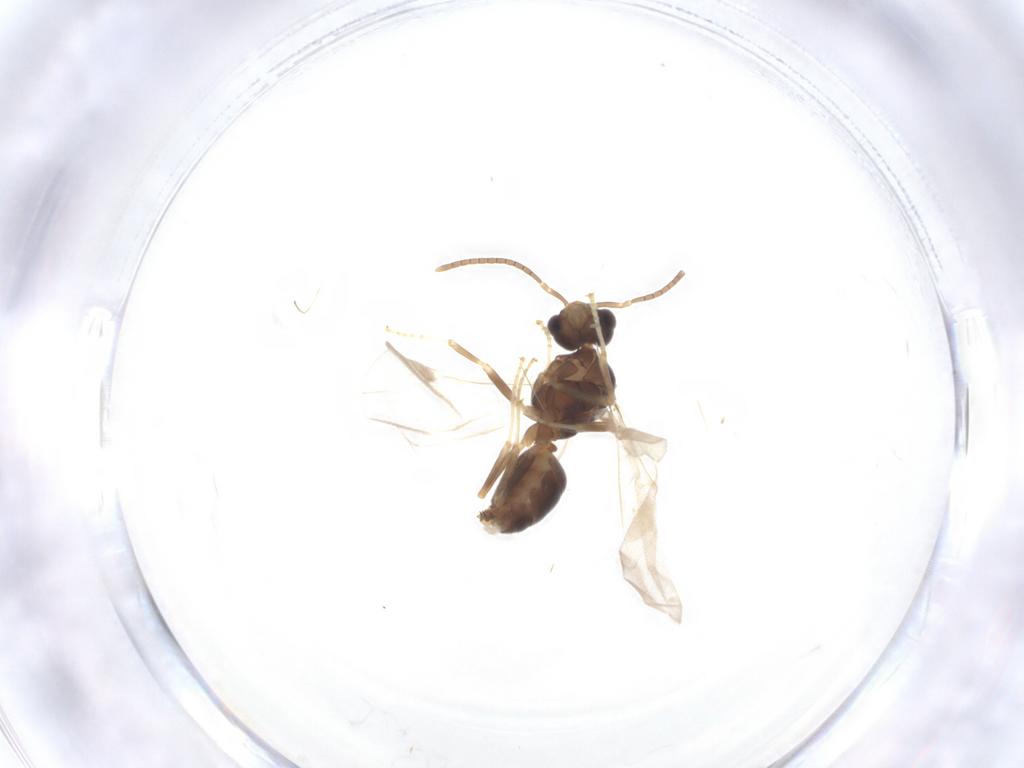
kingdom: Animalia
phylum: Arthropoda
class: Insecta
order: Hymenoptera
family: Formicidae
